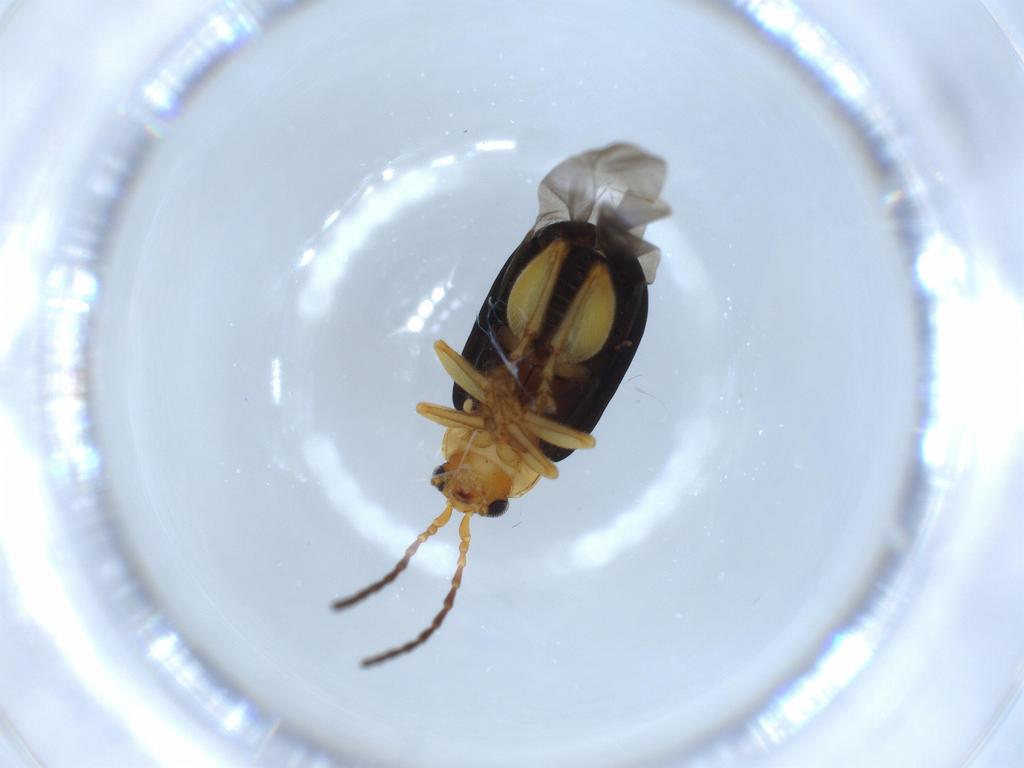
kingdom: Animalia
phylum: Arthropoda
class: Insecta
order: Coleoptera
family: Chrysomelidae
